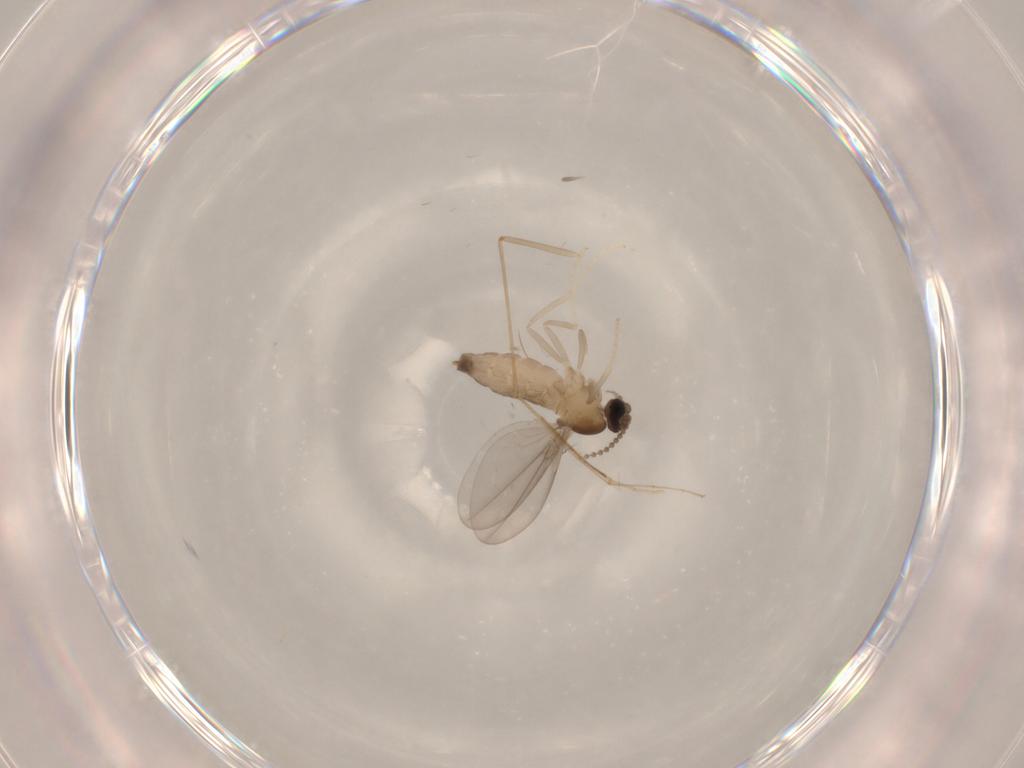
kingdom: Animalia
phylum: Arthropoda
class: Insecta
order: Diptera
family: Cecidomyiidae
